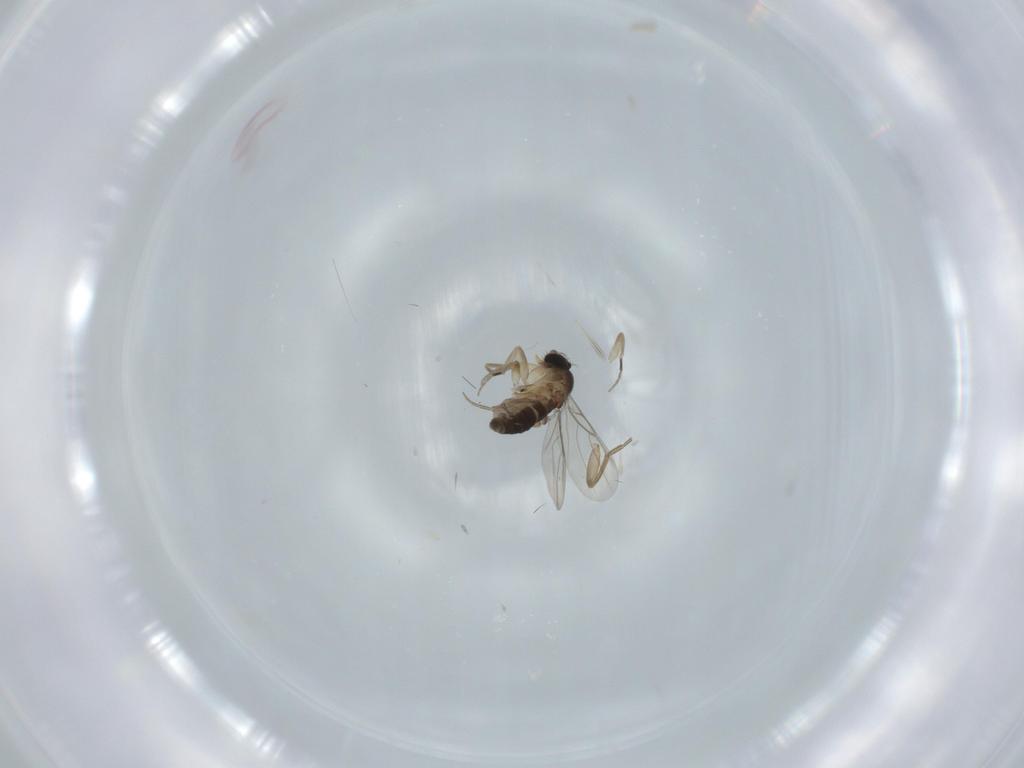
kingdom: Animalia
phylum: Arthropoda
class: Insecta
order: Diptera
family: Phoridae
